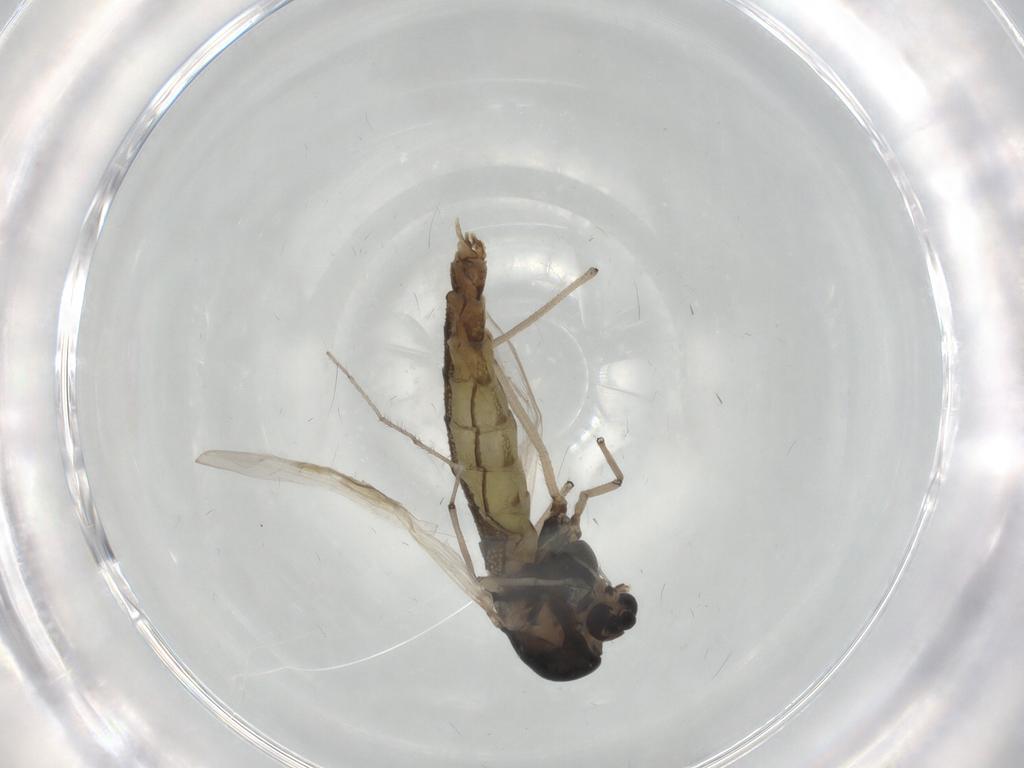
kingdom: Animalia
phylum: Arthropoda
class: Insecta
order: Diptera
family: Chironomidae
